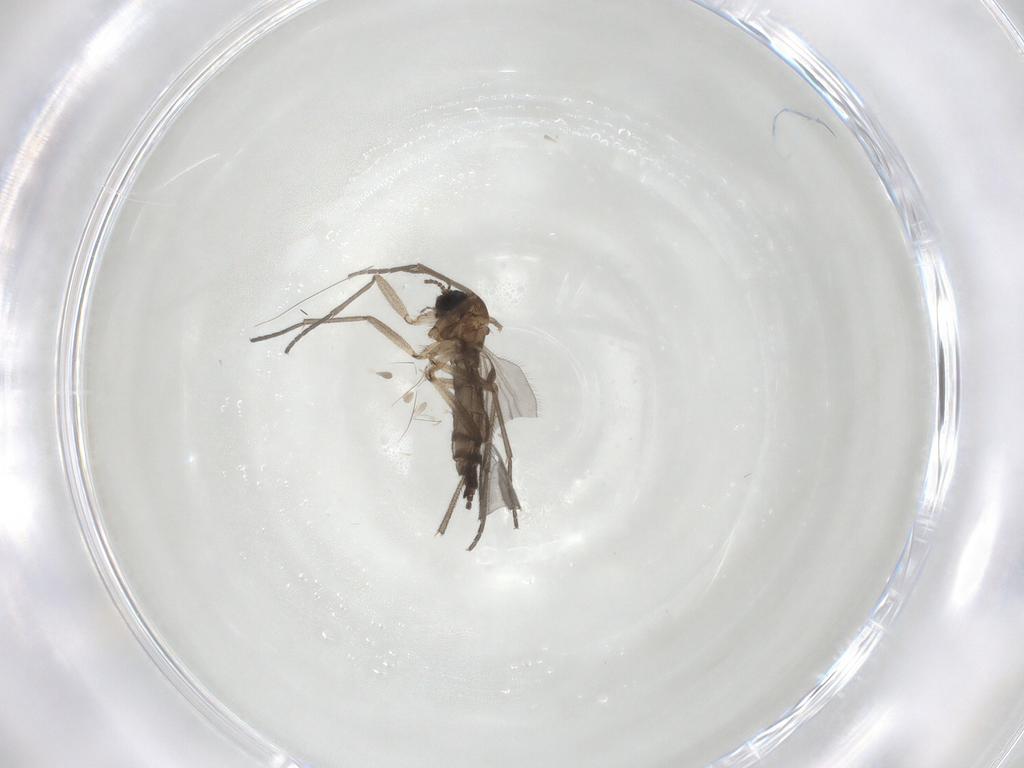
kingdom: Animalia
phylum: Arthropoda
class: Insecta
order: Diptera
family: Sciaridae
